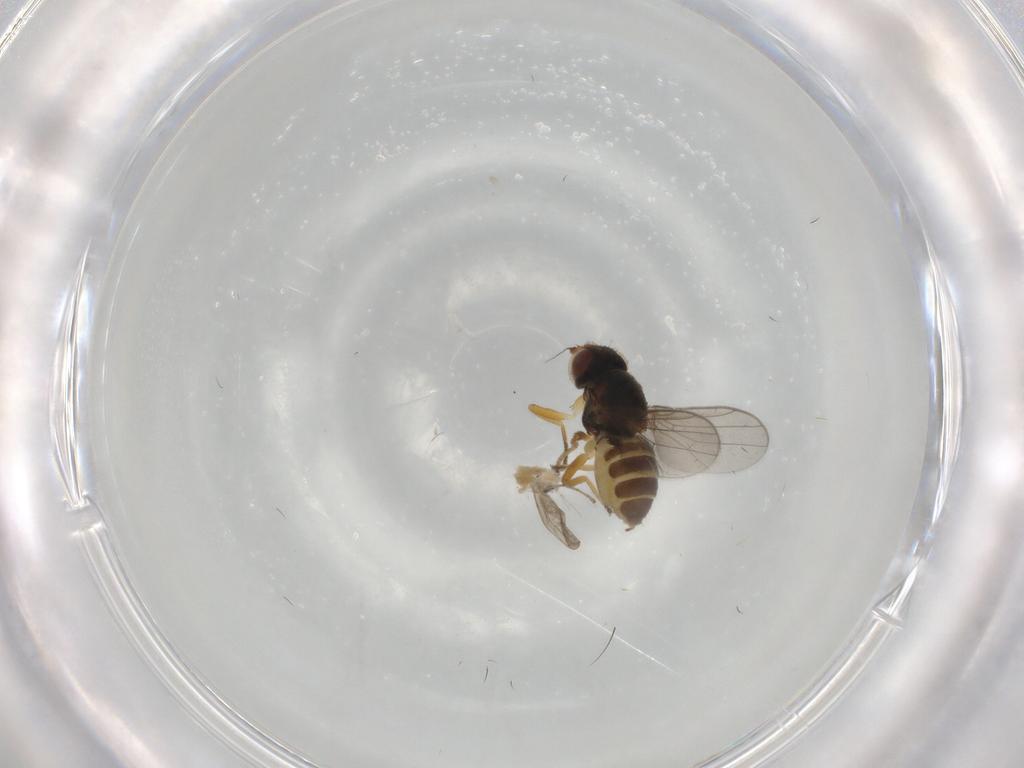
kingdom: Animalia
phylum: Arthropoda
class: Insecta
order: Diptera
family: Chloropidae
